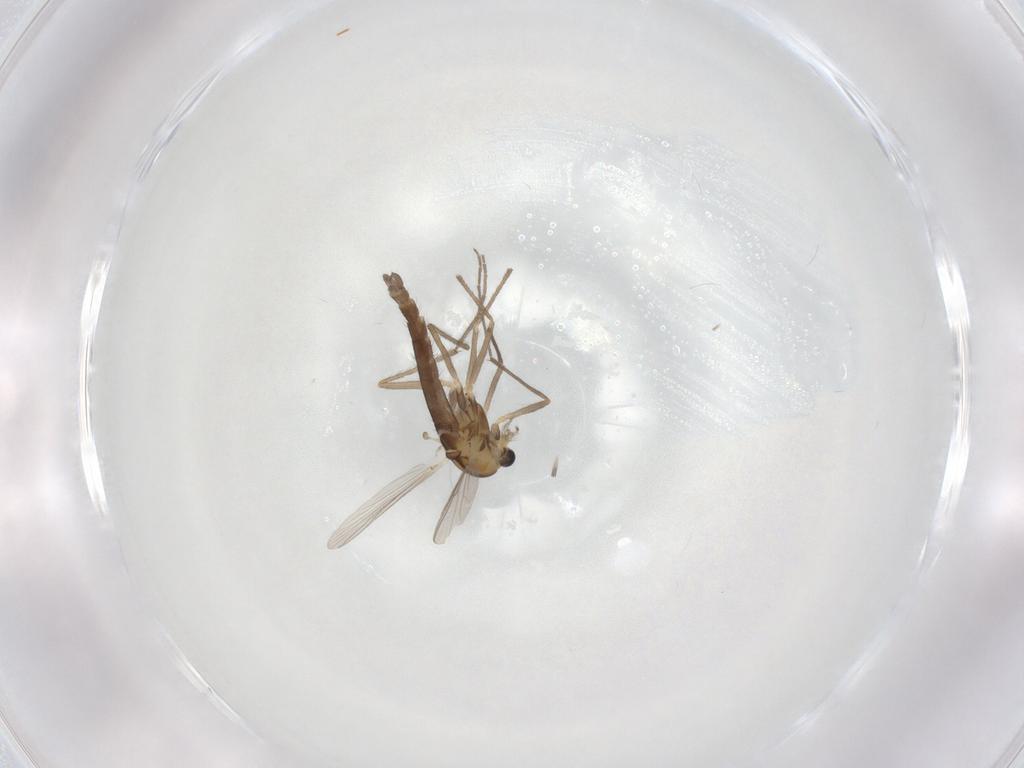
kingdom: Animalia
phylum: Arthropoda
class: Insecta
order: Diptera
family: Chironomidae
